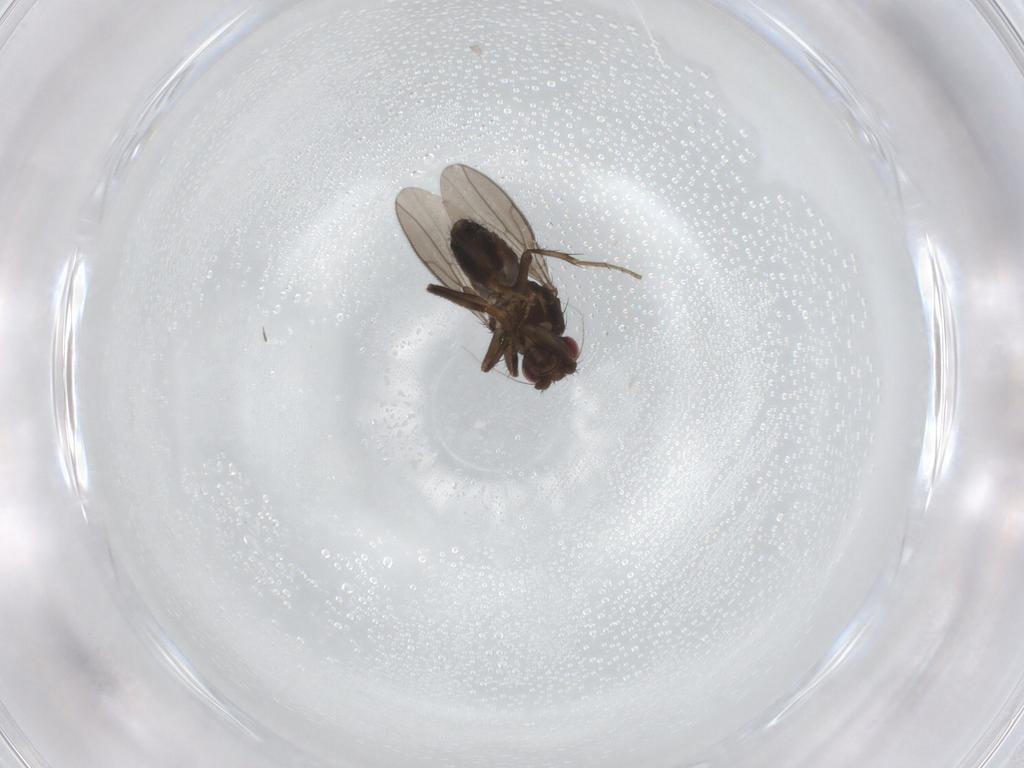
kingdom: Animalia
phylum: Arthropoda
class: Insecta
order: Diptera
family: Sphaeroceridae
